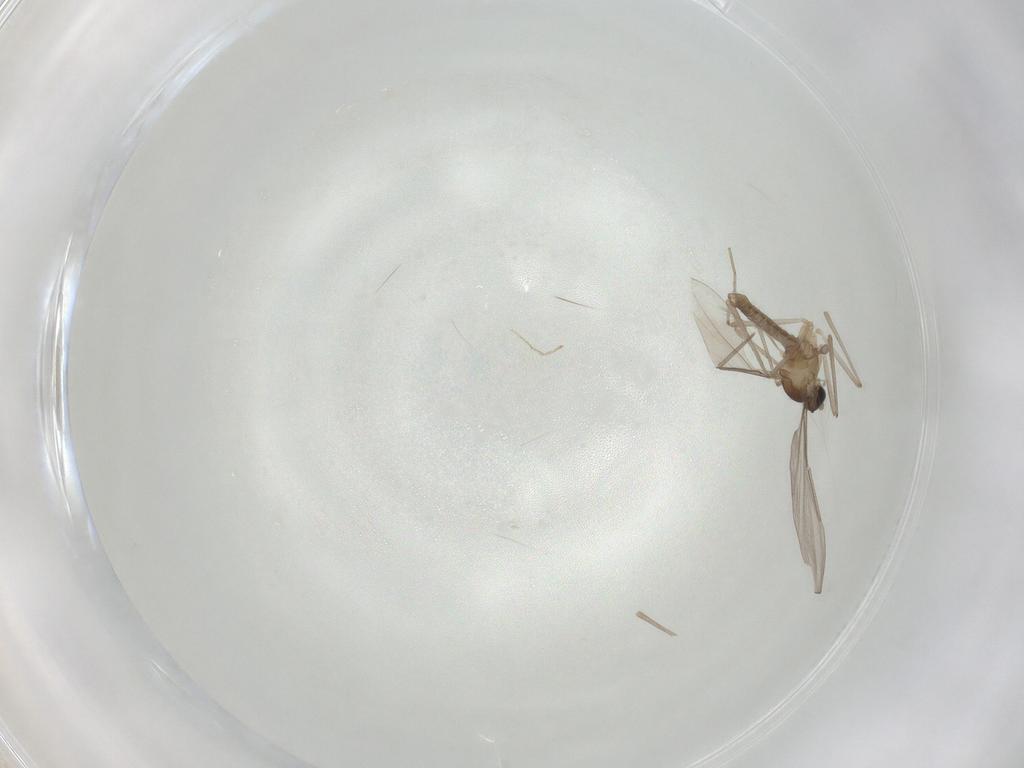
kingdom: Animalia
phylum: Arthropoda
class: Insecta
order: Diptera
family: Cecidomyiidae
